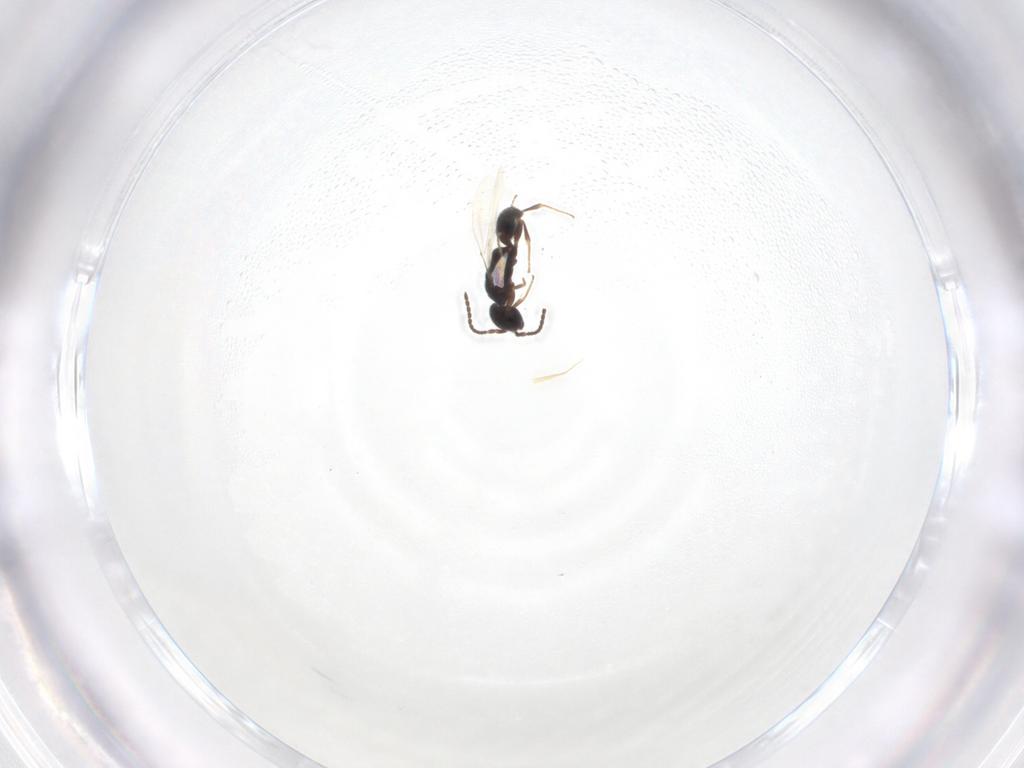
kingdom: Animalia
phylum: Arthropoda
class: Insecta
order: Hymenoptera
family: Bethylidae
